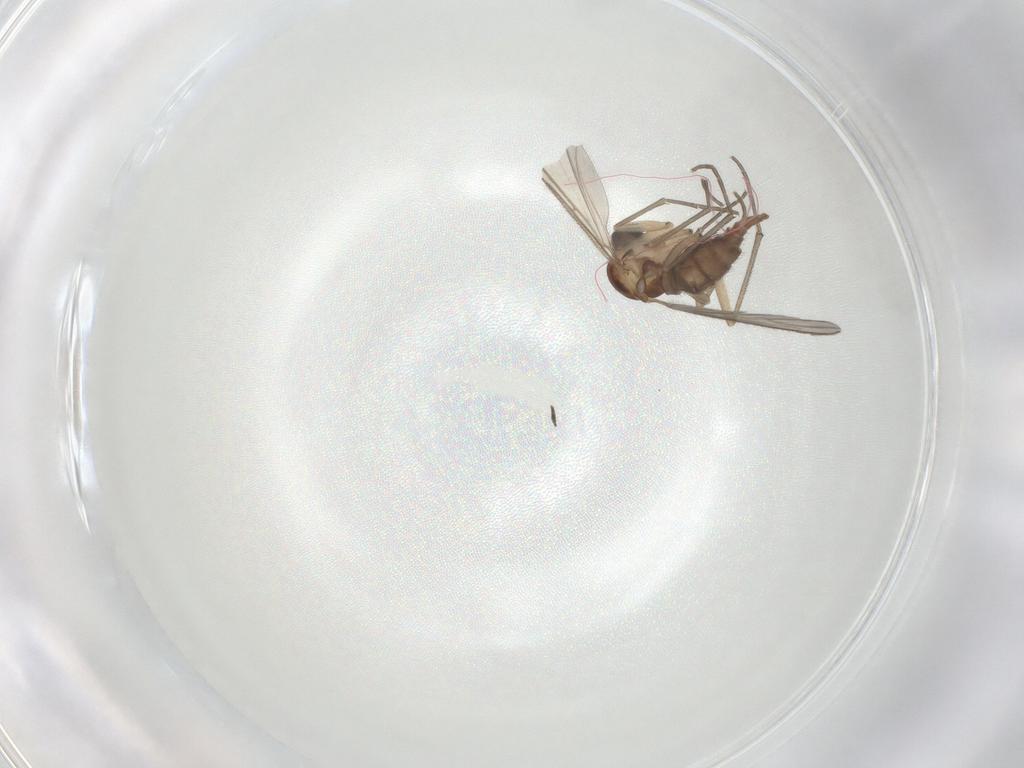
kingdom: Animalia
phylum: Arthropoda
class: Insecta
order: Diptera
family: Sciaridae
